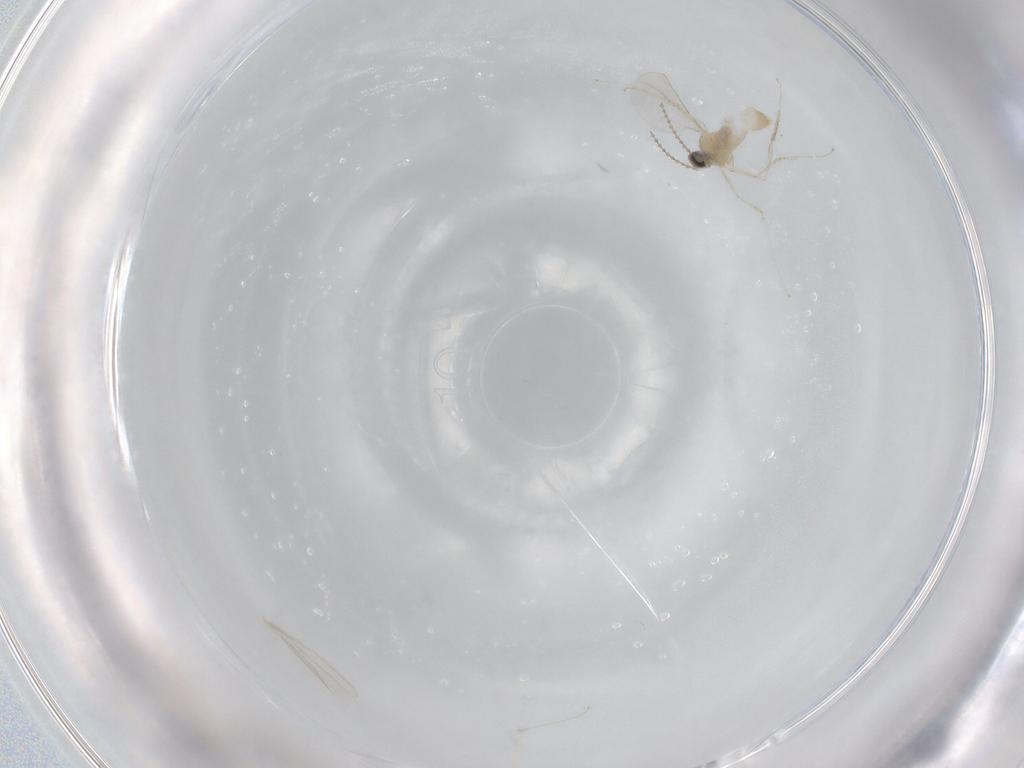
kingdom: Animalia
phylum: Arthropoda
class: Insecta
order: Diptera
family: Cecidomyiidae
